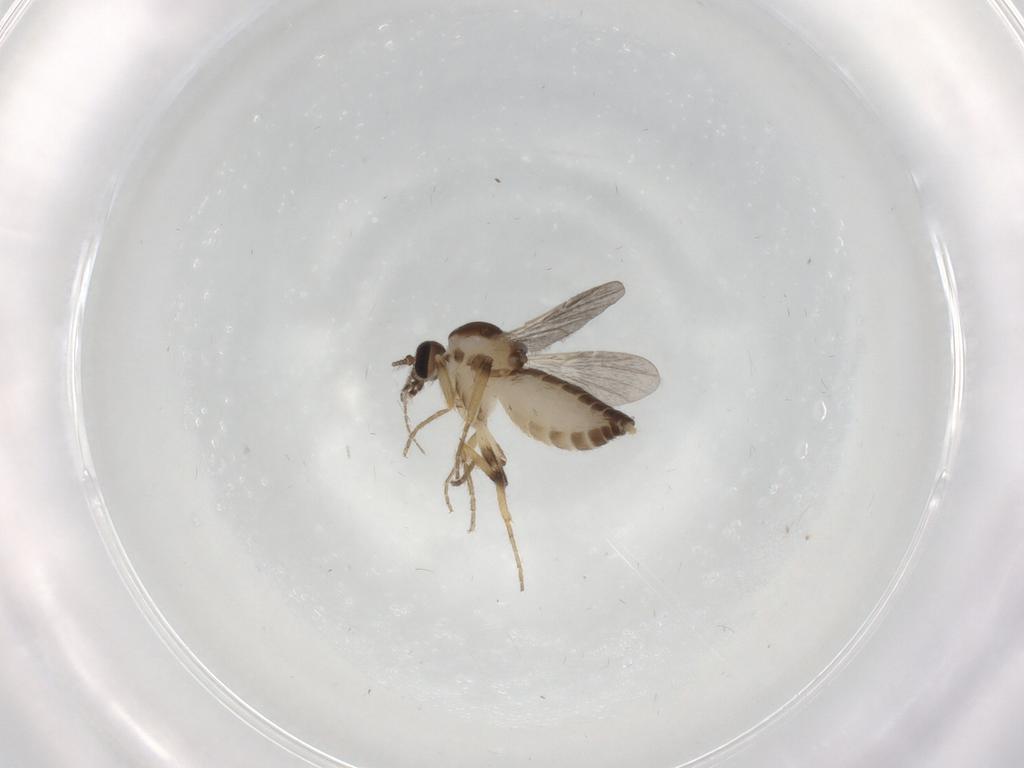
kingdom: Animalia
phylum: Arthropoda
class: Insecta
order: Diptera
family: Ceratopogonidae
